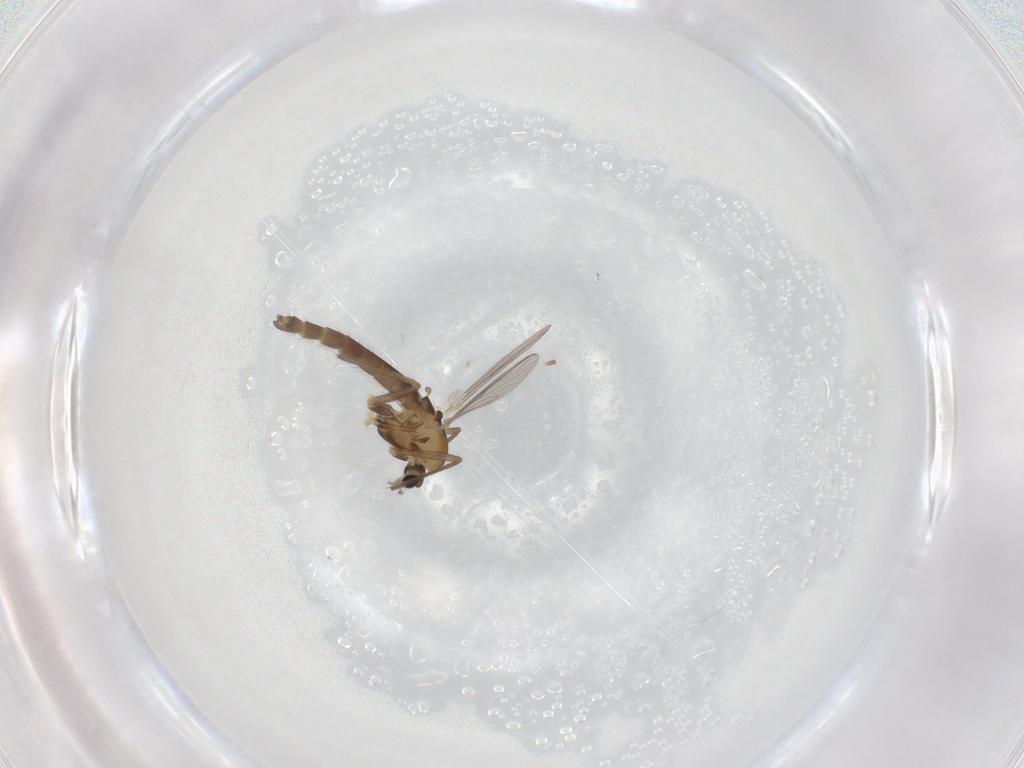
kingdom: Animalia
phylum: Arthropoda
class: Insecta
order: Diptera
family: Chironomidae
